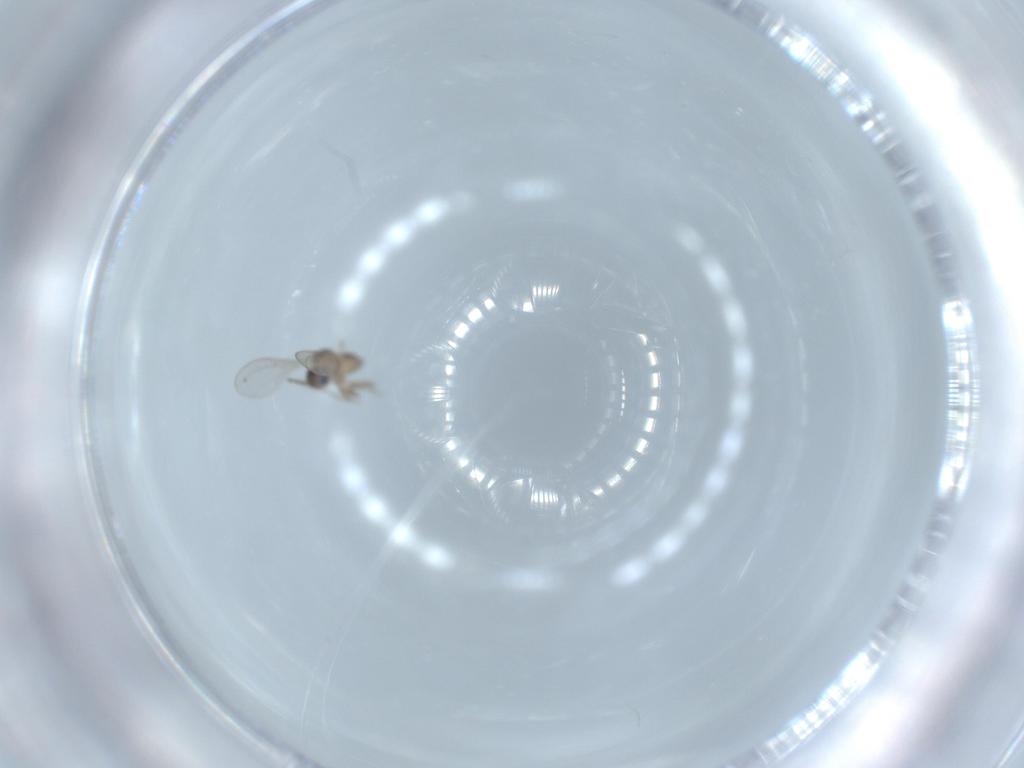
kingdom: Animalia
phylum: Arthropoda
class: Insecta
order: Diptera
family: Cecidomyiidae
